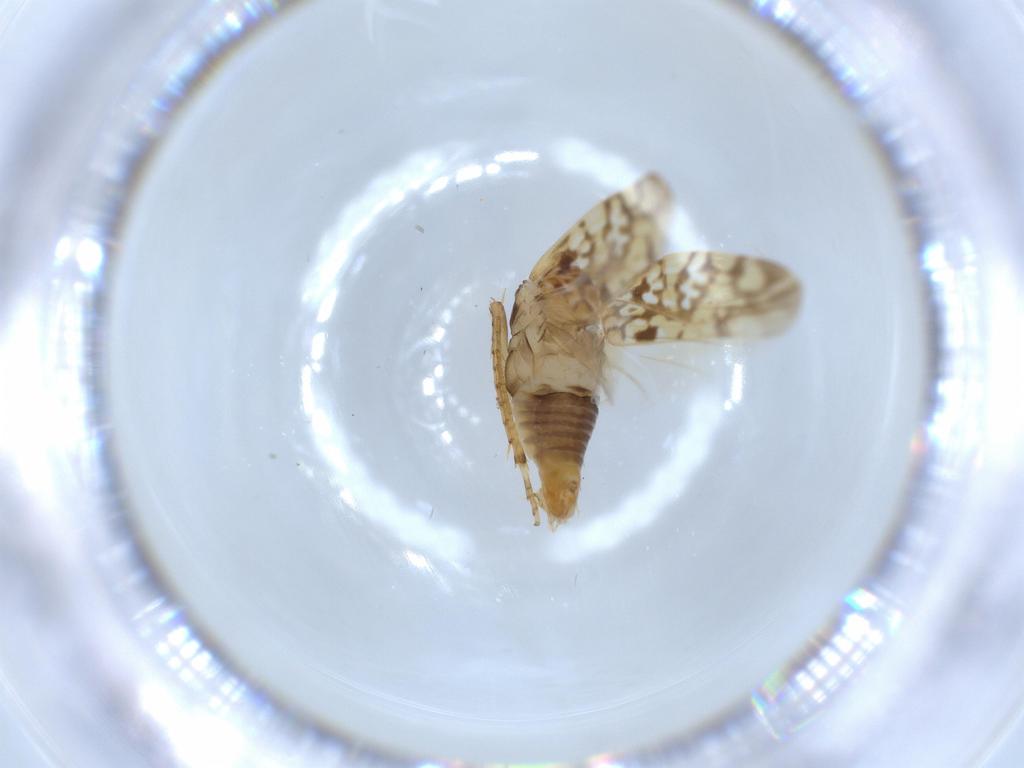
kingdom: Animalia
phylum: Arthropoda
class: Insecta
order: Hemiptera
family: Cicadellidae
